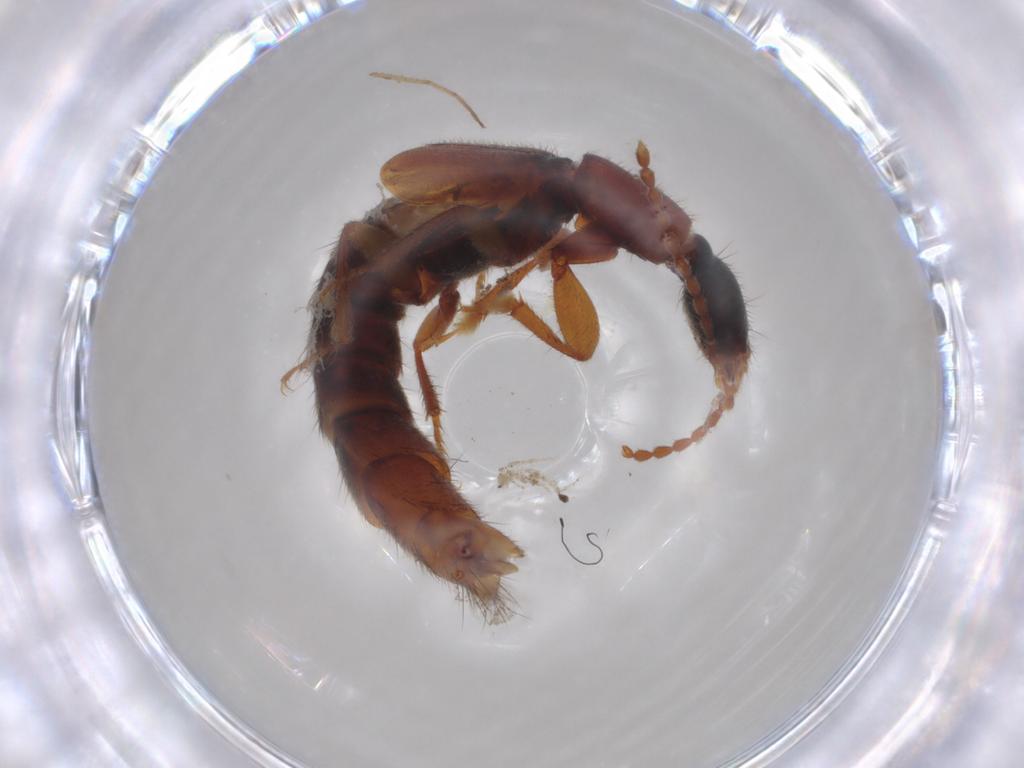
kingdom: Animalia
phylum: Arthropoda
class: Insecta
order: Coleoptera
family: Staphylinidae
